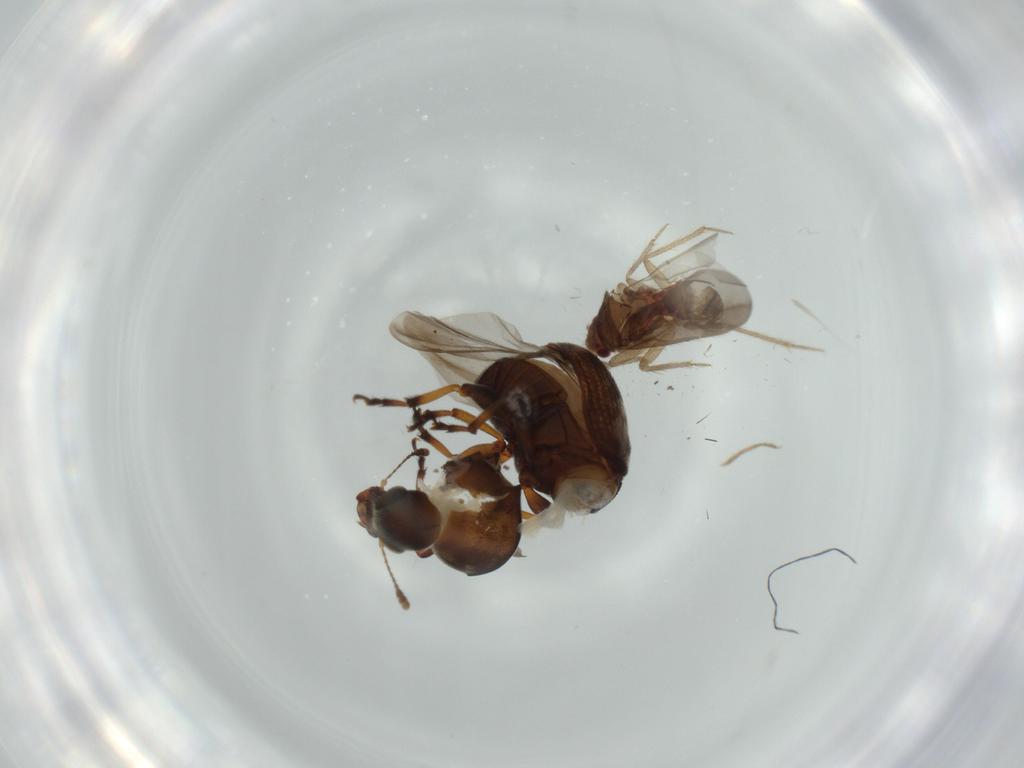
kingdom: Animalia
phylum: Arthropoda
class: Insecta
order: Coleoptera
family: Anthribidae
